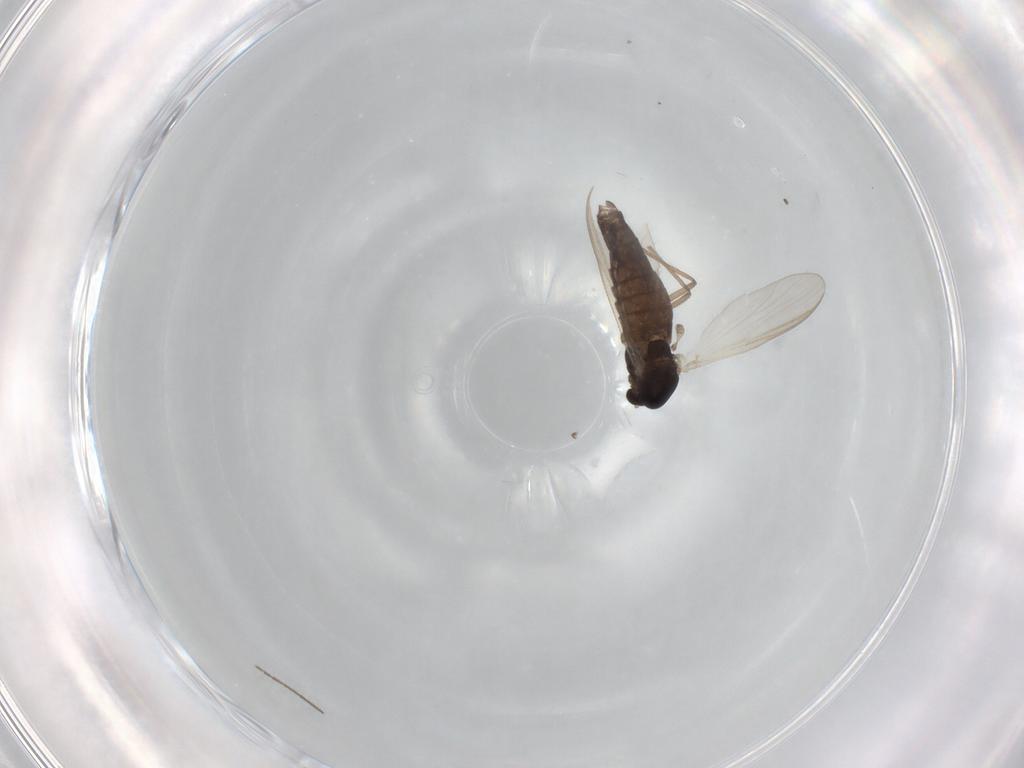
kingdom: Animalia
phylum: Arthropoda
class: Insecta
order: Diptera
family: Chironomidae
